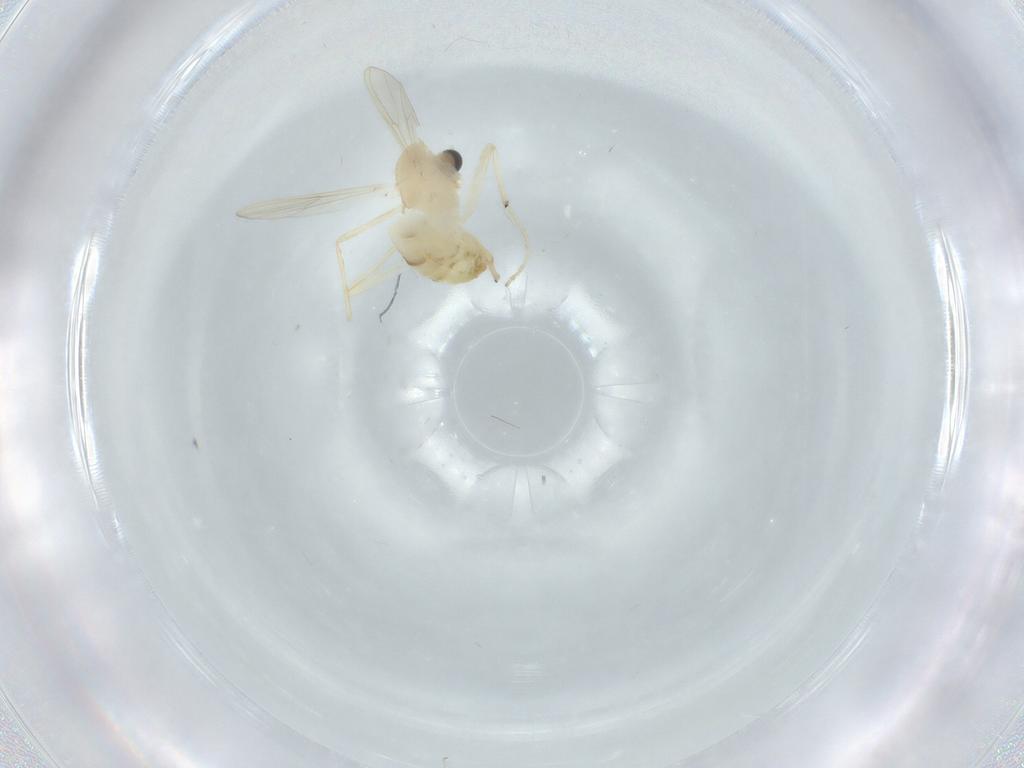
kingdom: Animalia
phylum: Arthropoda
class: Insecta
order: Diptera
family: Chironomidae
